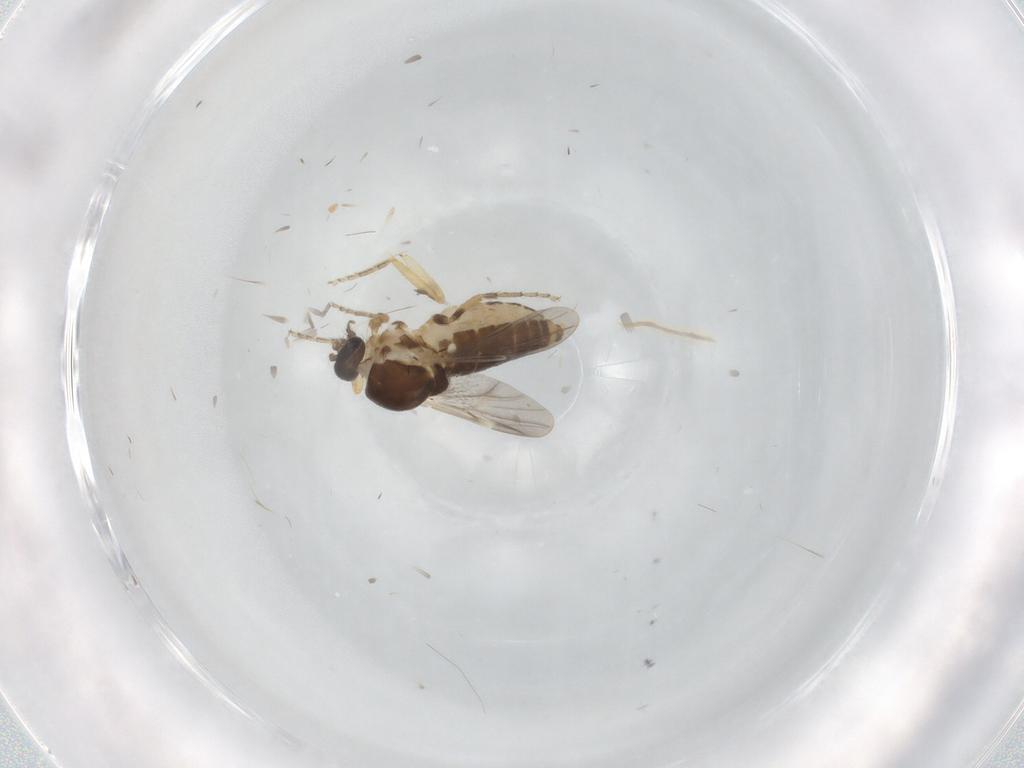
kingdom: Animalia
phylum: Arthropoda
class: Insecta
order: Diptera
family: Ceratopogonidae
